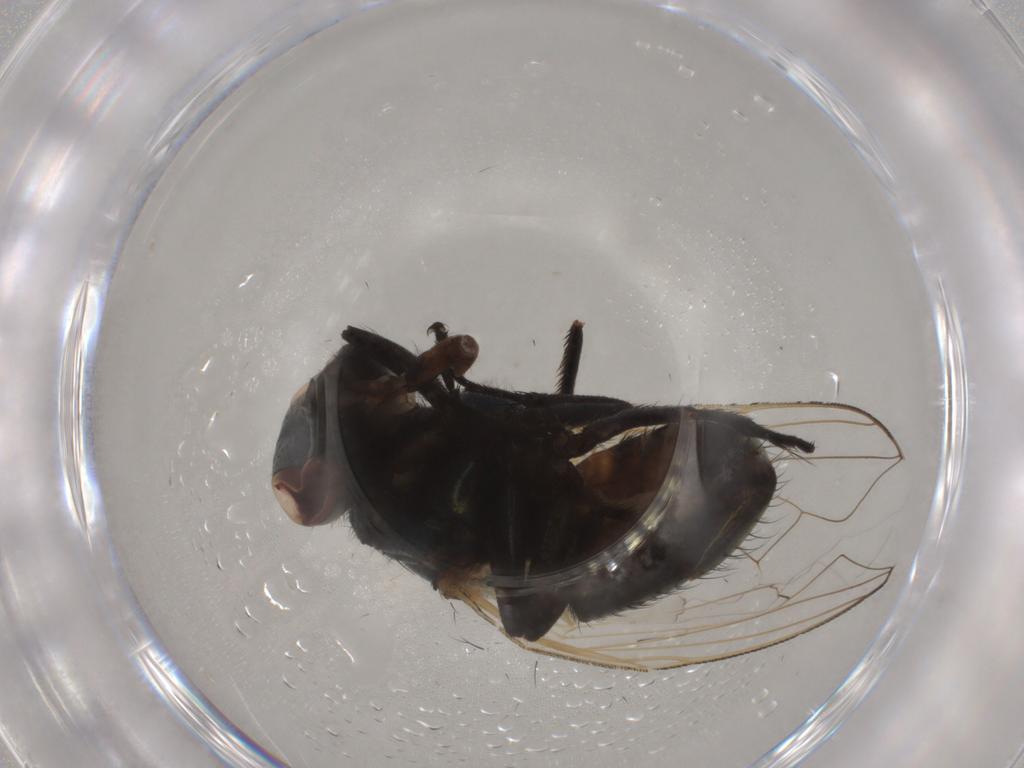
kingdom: Animalia
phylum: Arthropoda
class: Insecta
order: Diptera
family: Muscidae
